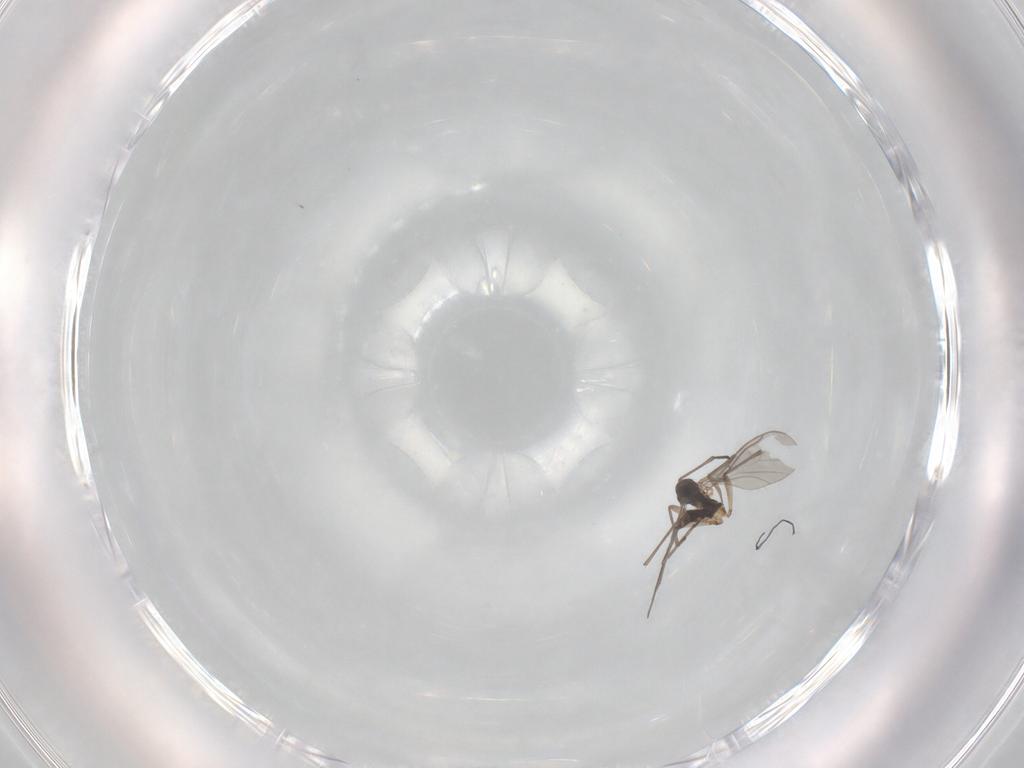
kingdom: Animalia
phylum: Arthropoda
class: Insecta
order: Diptera
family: Sciaridae
